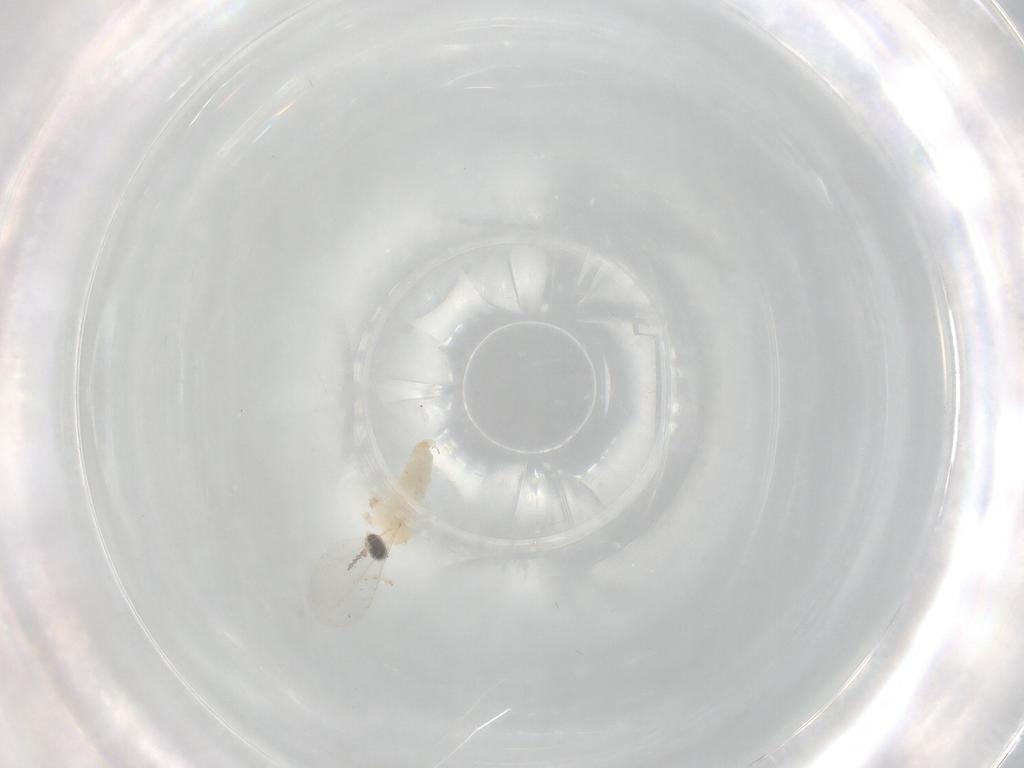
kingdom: Animalia
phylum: Arthropoda
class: Insecta
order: Diptera
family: Cecidomyiidae
